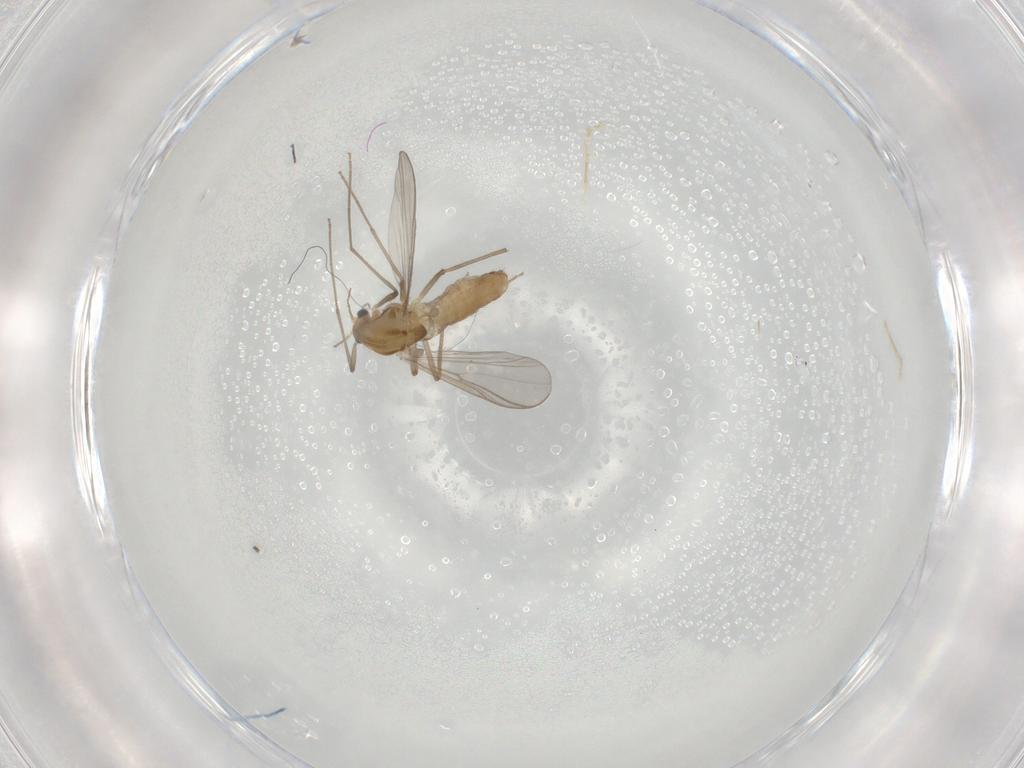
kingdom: Animalia
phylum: Arthropoda
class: Insecta
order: Diptera
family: Chironomidae
